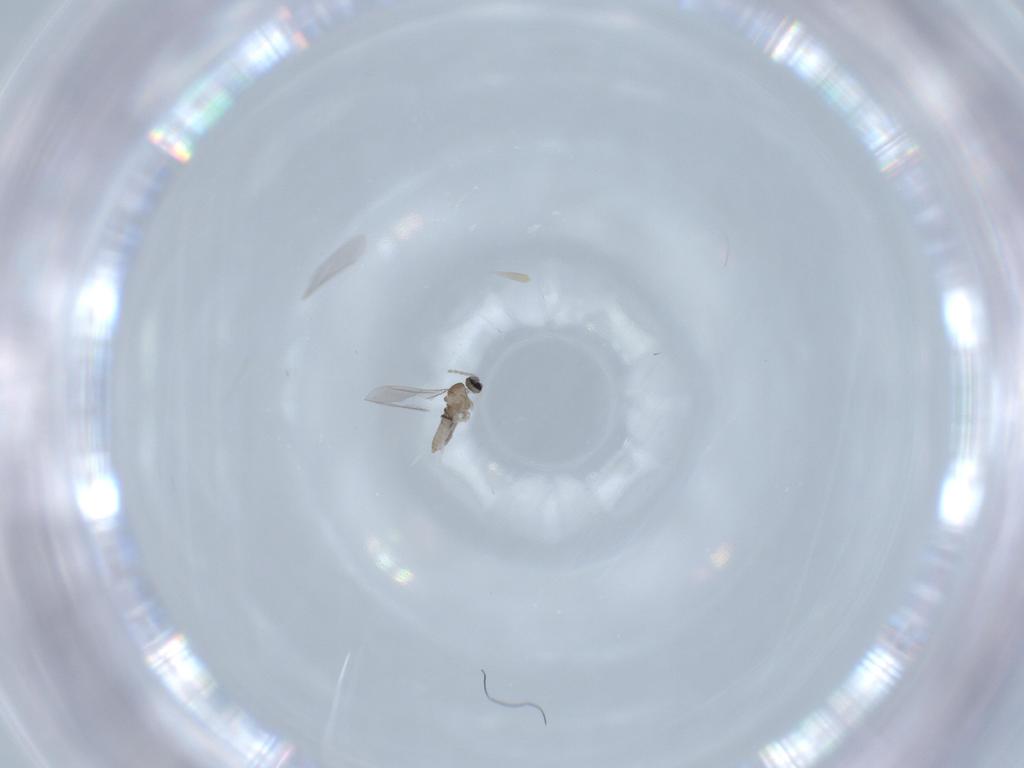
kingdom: Animalia
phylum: Arthropoda
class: Insecta
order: Diptera
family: Cecidomyiidae
